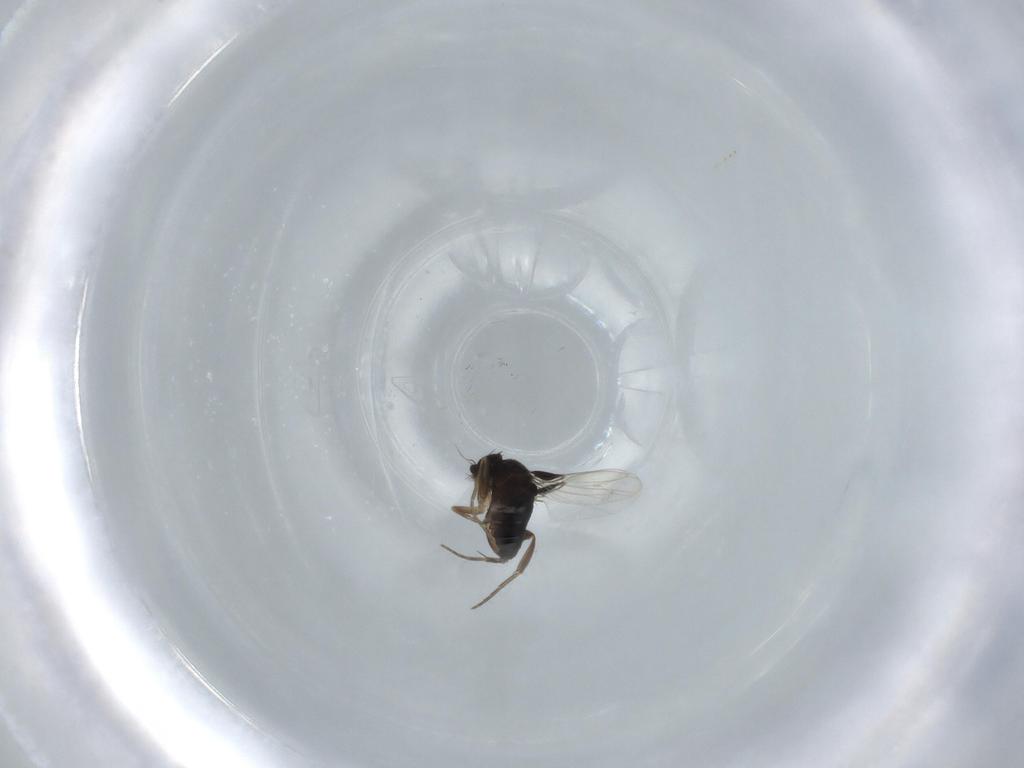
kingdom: Animalia
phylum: Arthropoda
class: Insecta
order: Diptera
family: Phoridae
